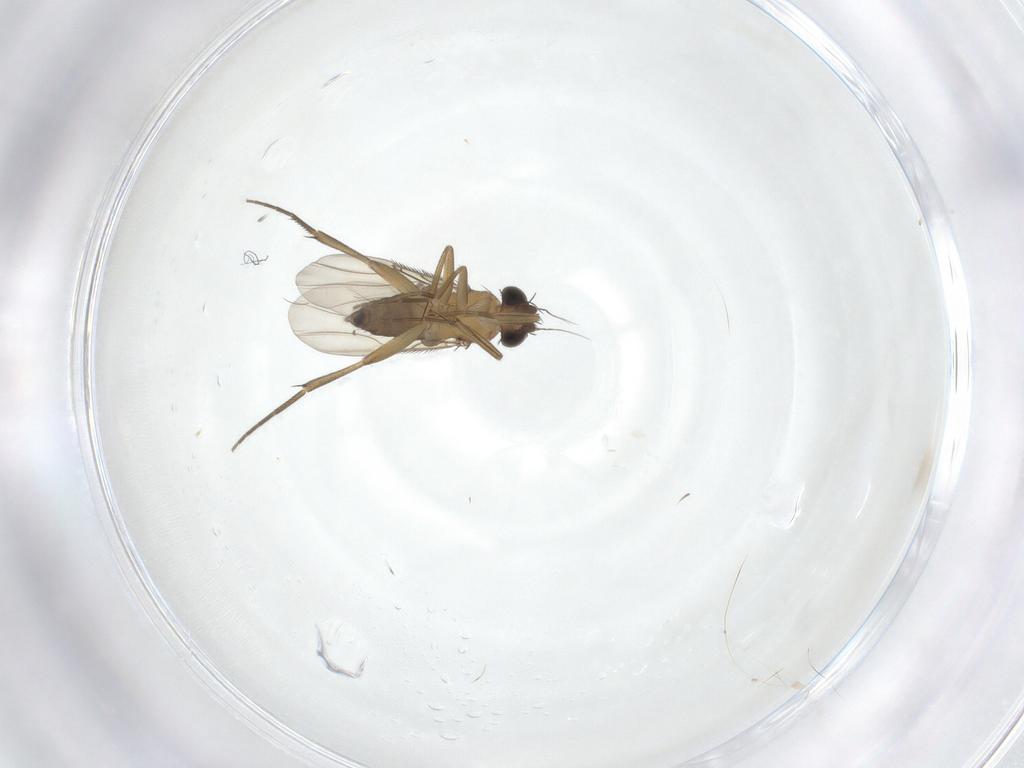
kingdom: Animalia
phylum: Arthropoda
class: Insecta
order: Diptera
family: Phoridae
